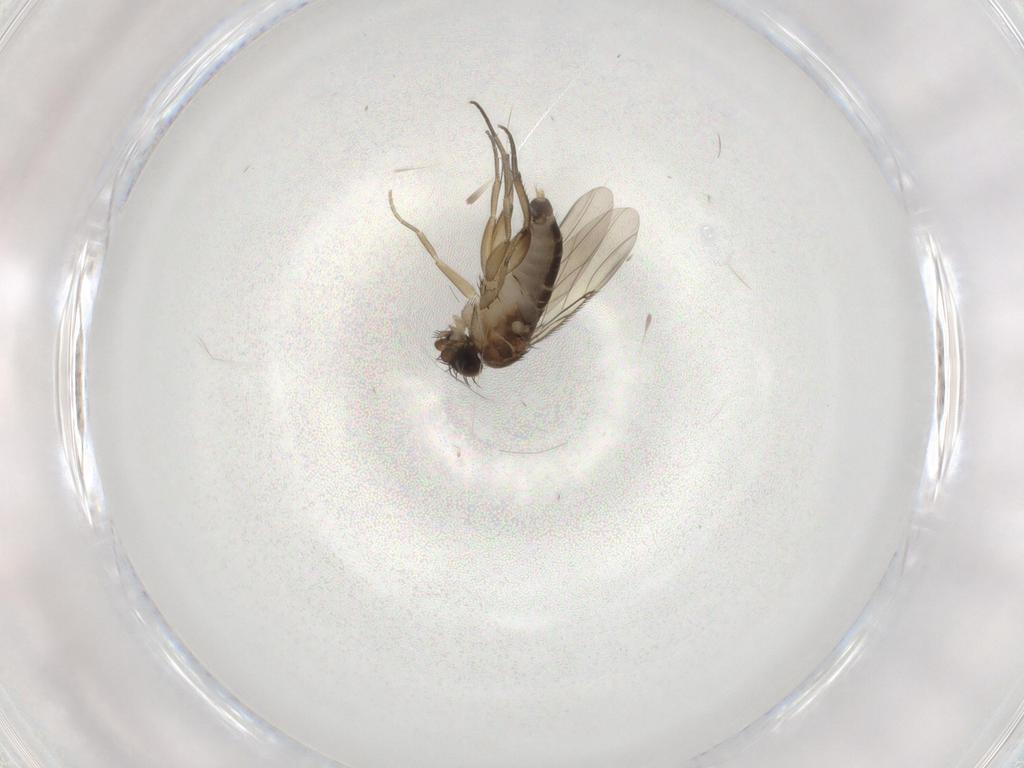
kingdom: Animalia
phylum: Arthropoda
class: Insecta
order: Diptera
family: Phoridae
